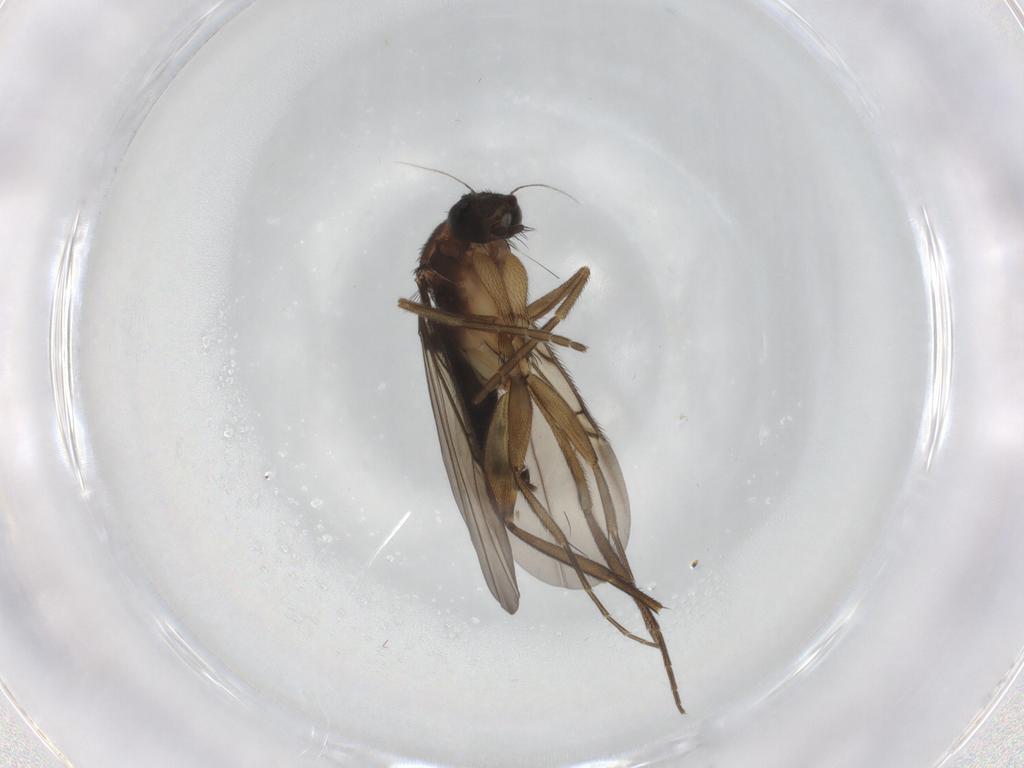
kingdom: Animalia
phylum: Arthropoda
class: Insecta
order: Diptera
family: Phoridae
